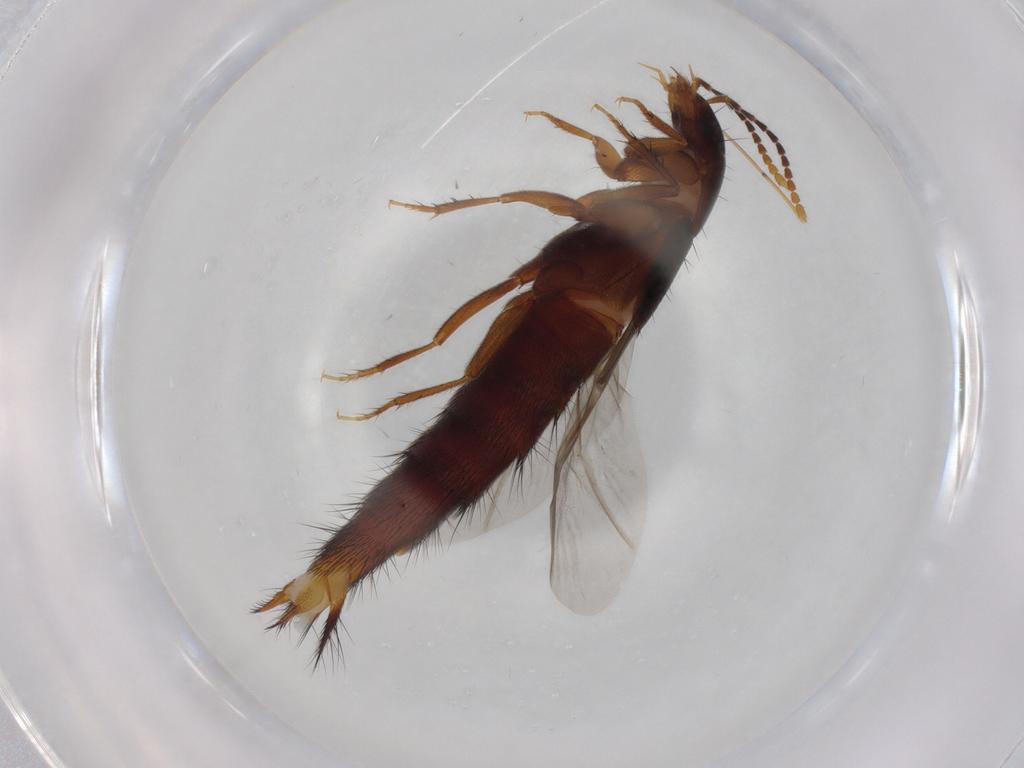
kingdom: Animalia
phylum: Arthropoda
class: Insecta
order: Coleoptera
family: Staphylinidae
